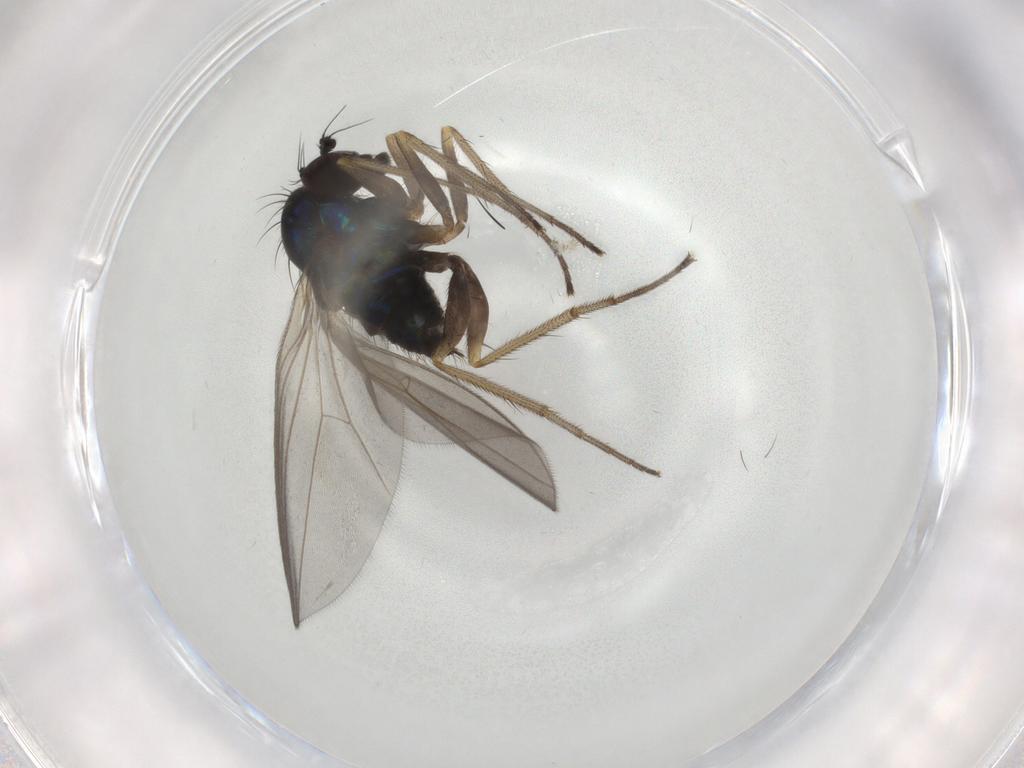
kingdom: Animalia
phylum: Arthropoda
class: Insecta
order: Diptera
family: Dolichopodidae
